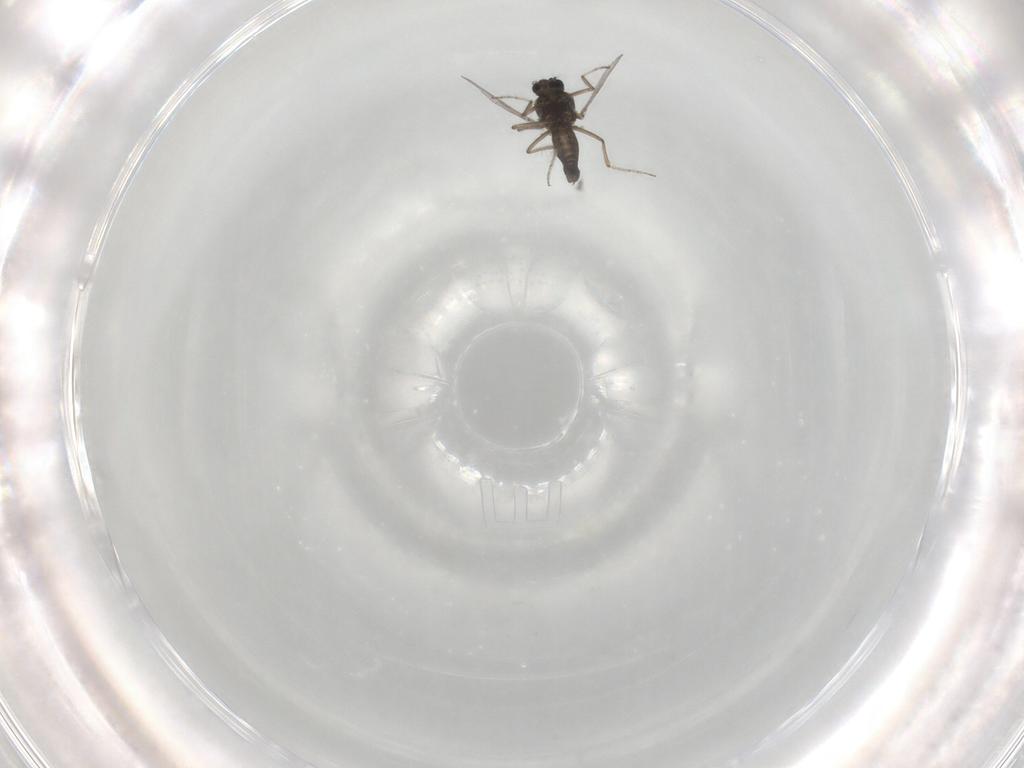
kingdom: Animalia
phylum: Arthropoda
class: Insecta
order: Diptera
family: Ceratopogonidae
